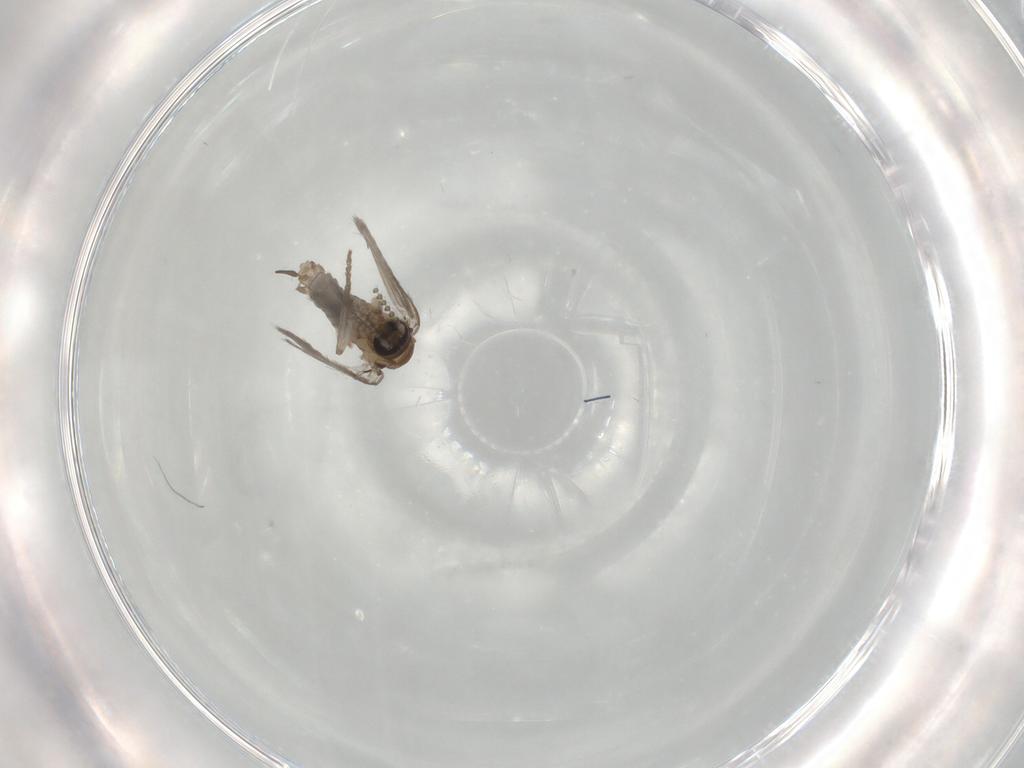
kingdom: Animalia
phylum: Arthropoda
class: Insecta
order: Diptera
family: Psychodidae
